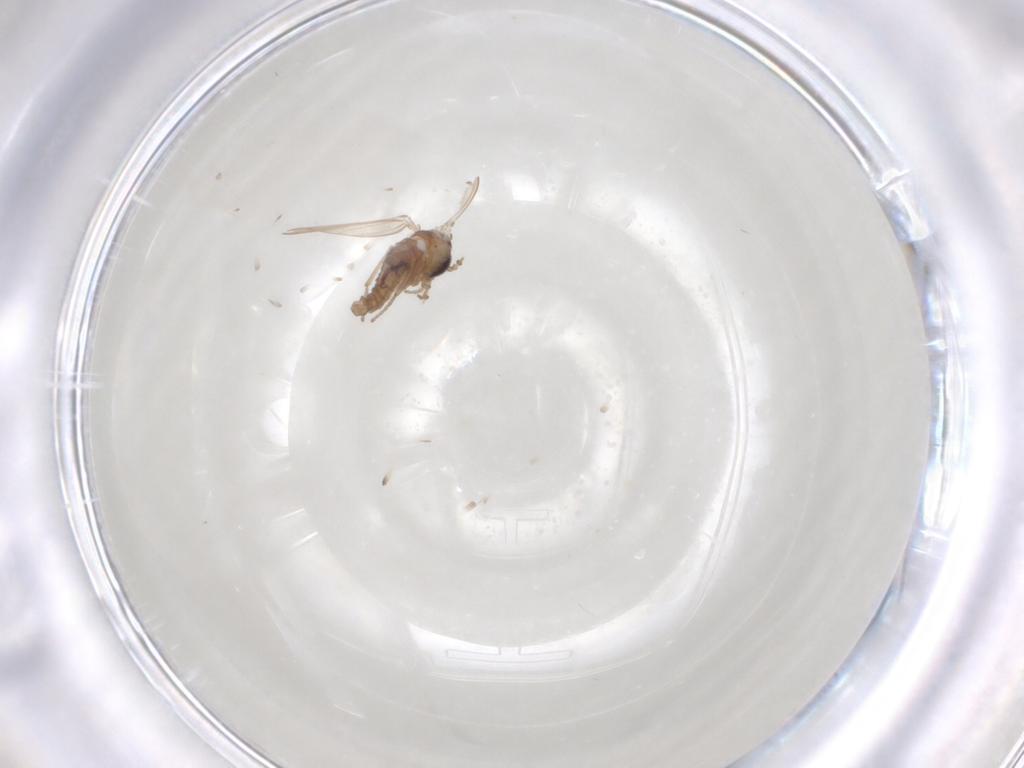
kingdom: Animalia
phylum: Arthropoda
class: Insecta
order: Diptera
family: Psychodidae
